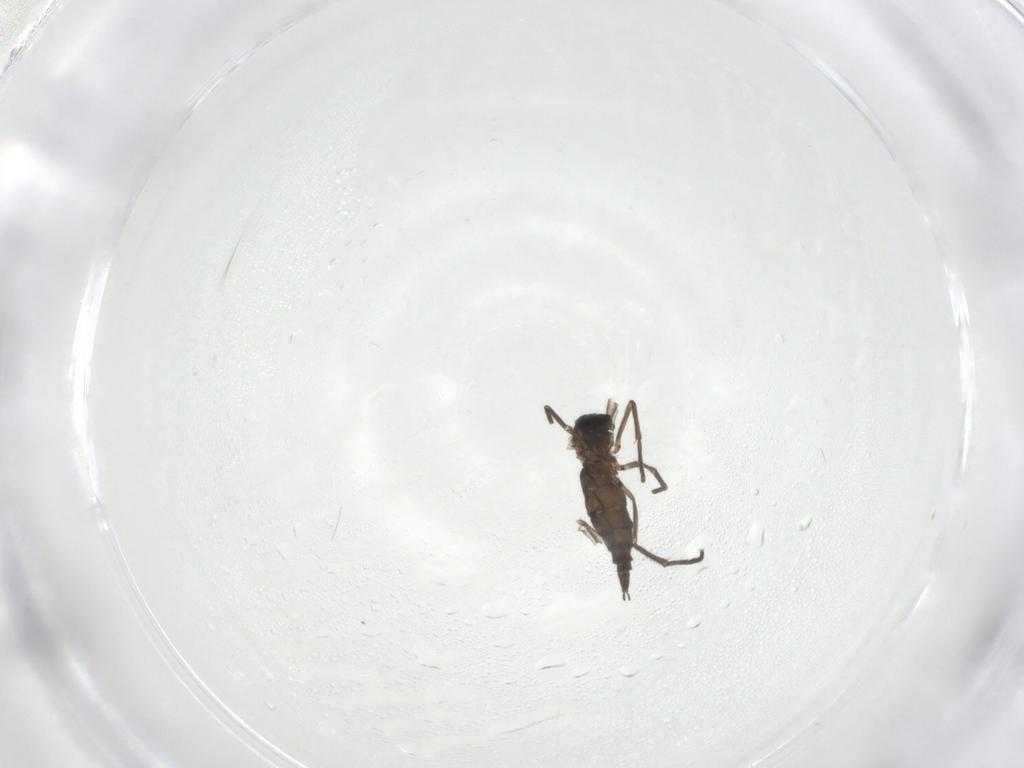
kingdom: Animalia
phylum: Arthropoda
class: Insecta
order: Diptera
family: Sciaridae
